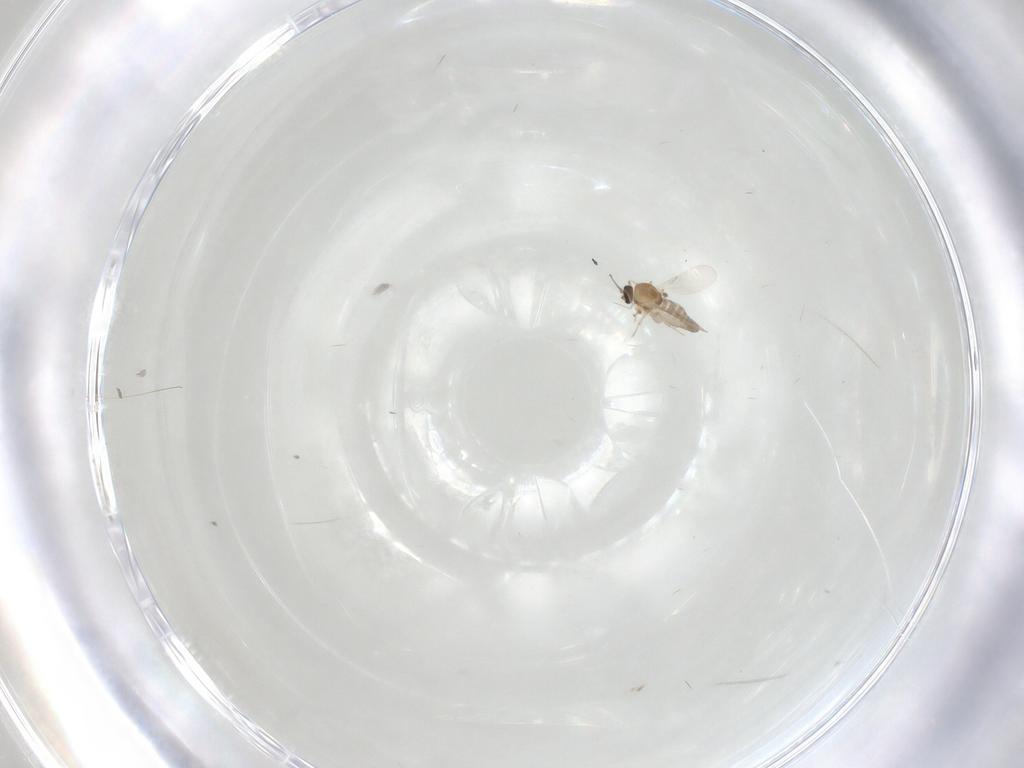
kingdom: Animalia
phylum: Arthropoda
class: Insecta
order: Diptera
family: Ceratopogonidae
